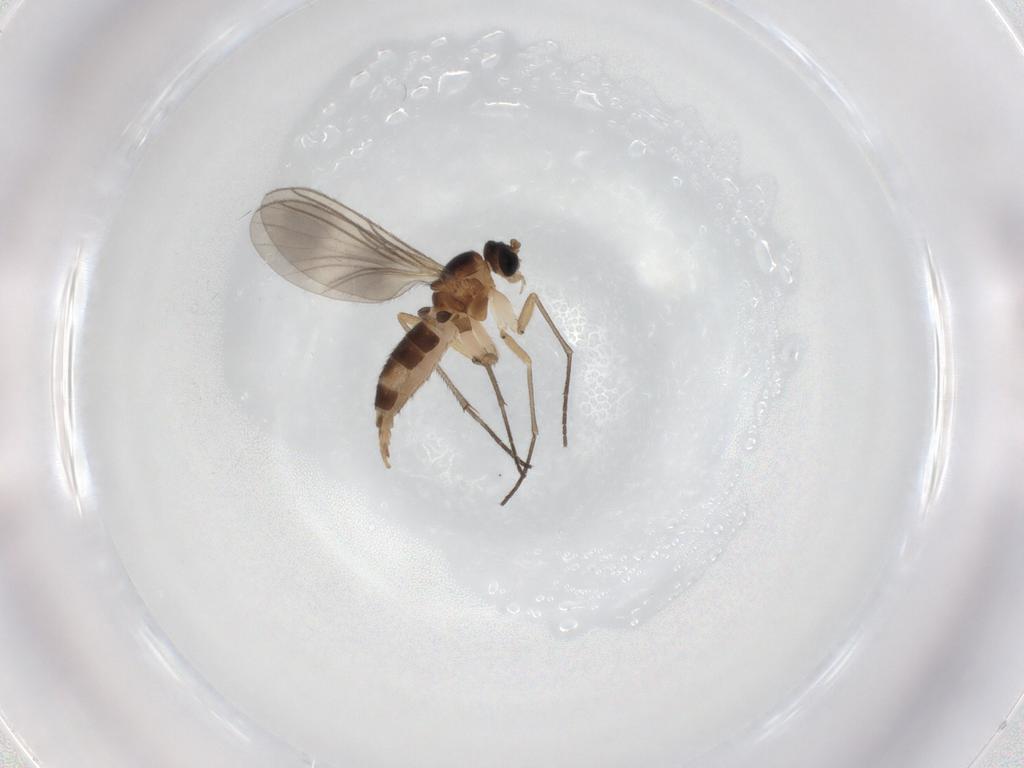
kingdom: Animalia
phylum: Arthropoda
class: Insecta
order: Diptera
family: Sciaridae
